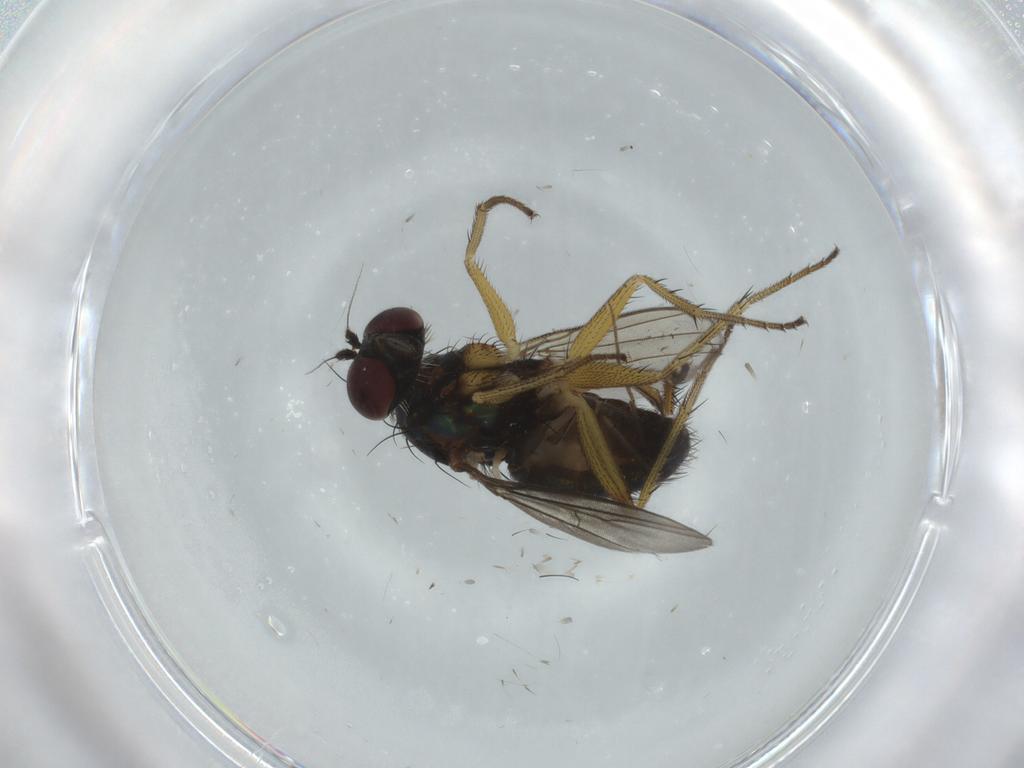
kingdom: Animalia
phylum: Arthropoda
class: Insecta
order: Diptera
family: Dolichopodidae
